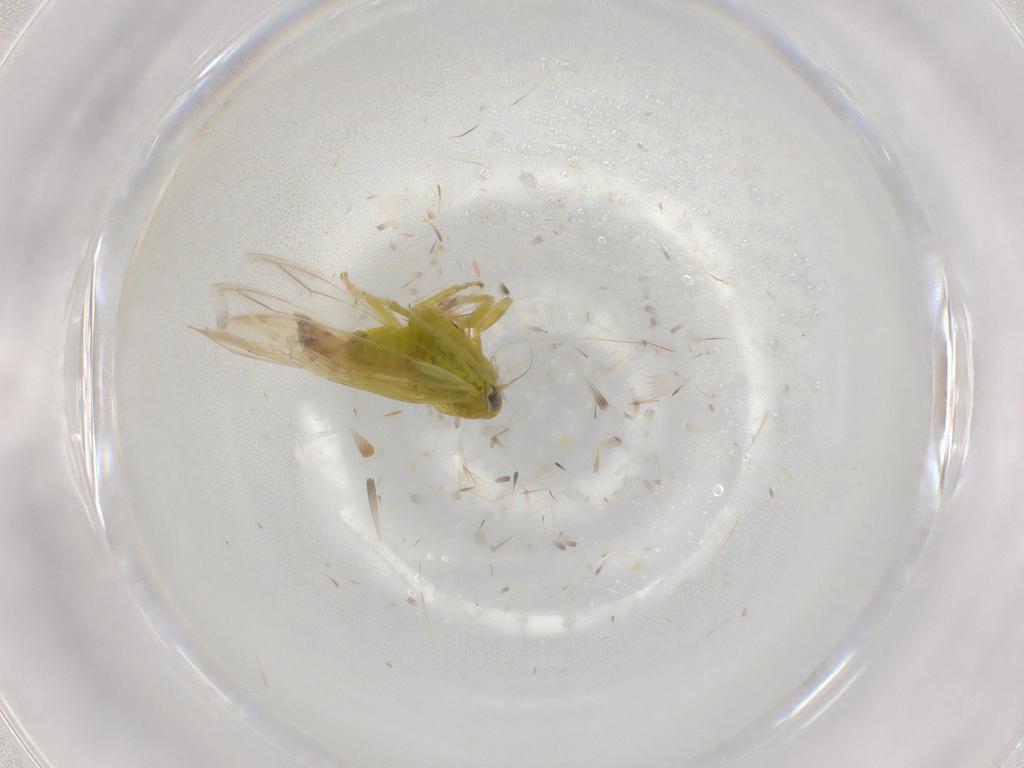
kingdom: Animalia
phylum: Arthropoda
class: Insecta
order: Hemiptera
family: Cicadellidae
